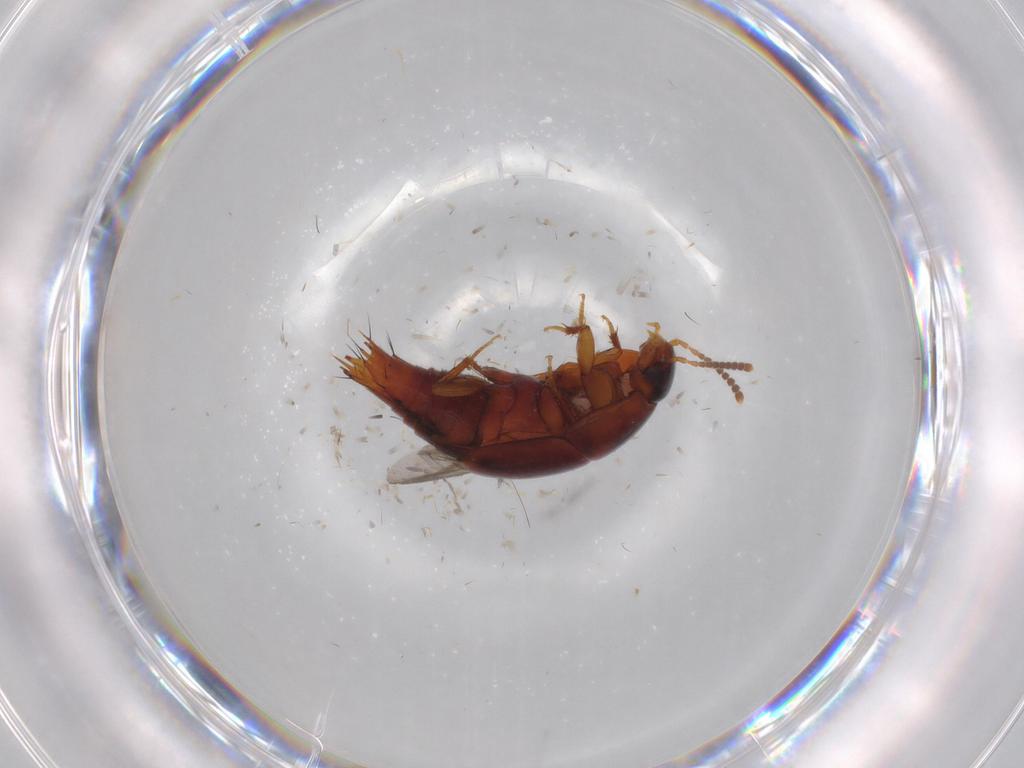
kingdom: Animalia
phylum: Arthropoda
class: Insecta
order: Coleoptera
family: Staphylinidae
